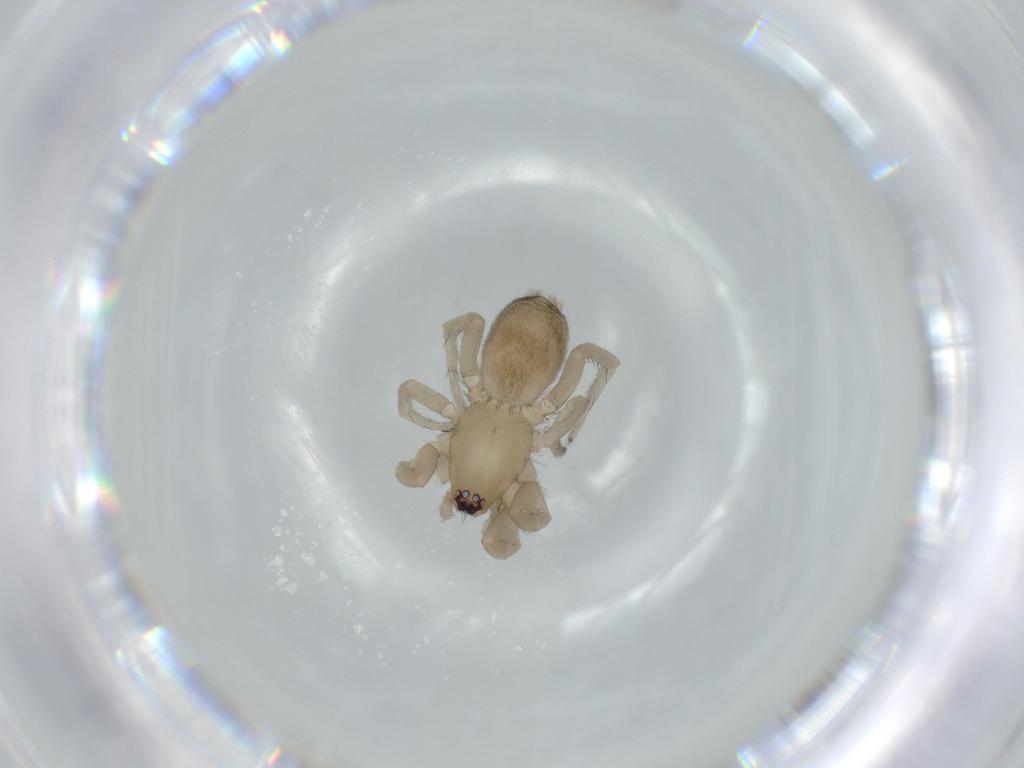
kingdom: Animalia
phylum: Arthropoda
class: Arachnida
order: Araneae
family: Gnaphosidae
